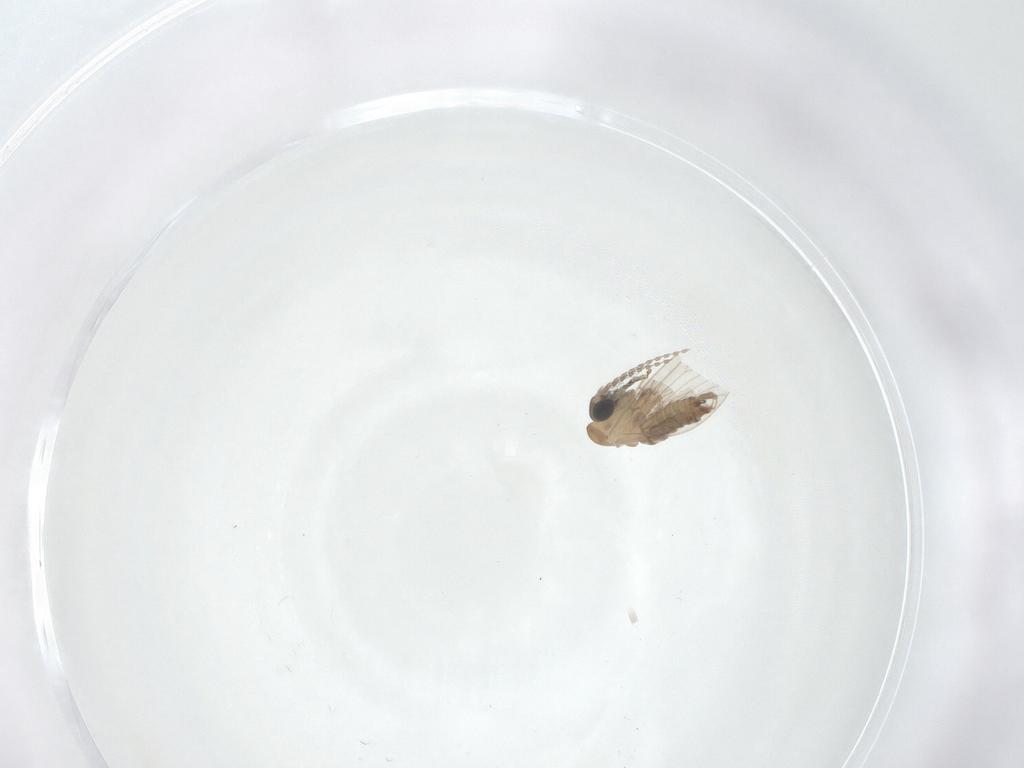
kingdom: Animalia
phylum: Arthropoda
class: Insecta
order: Diptera
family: Psychodidae
